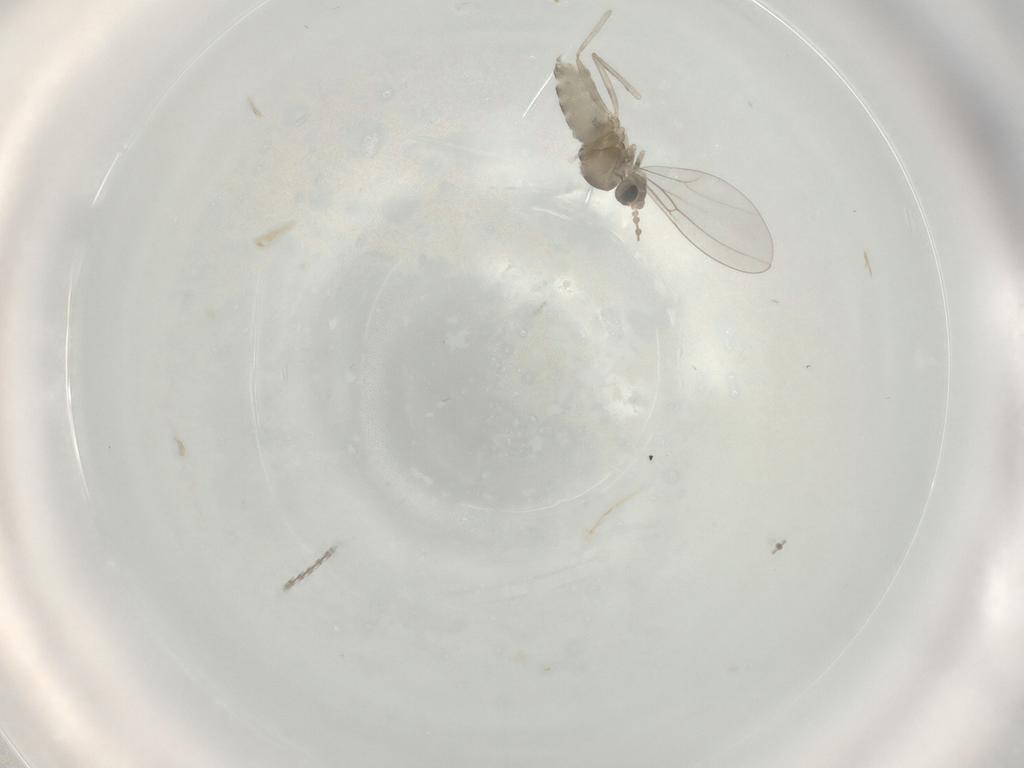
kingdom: Animalia
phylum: Arthropoda
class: Insecta
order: Diptera
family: Cecidomyiidae
